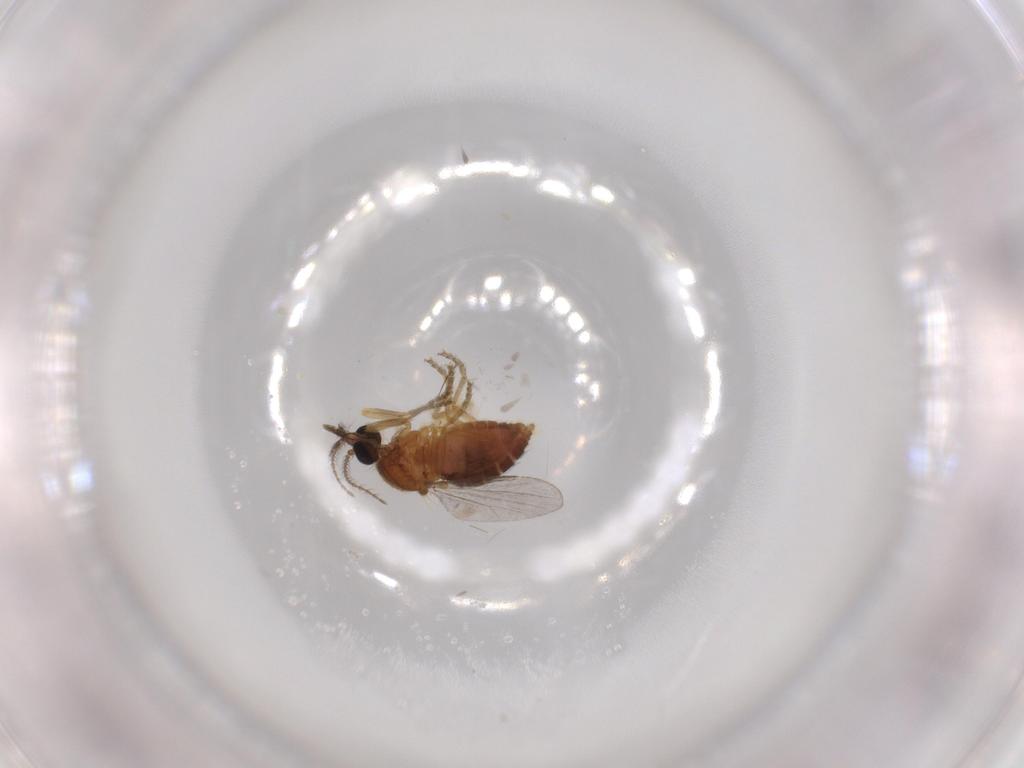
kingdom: Animalia
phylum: Arthropoda
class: Insecta
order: Diptera
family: Ceratopogonidae
